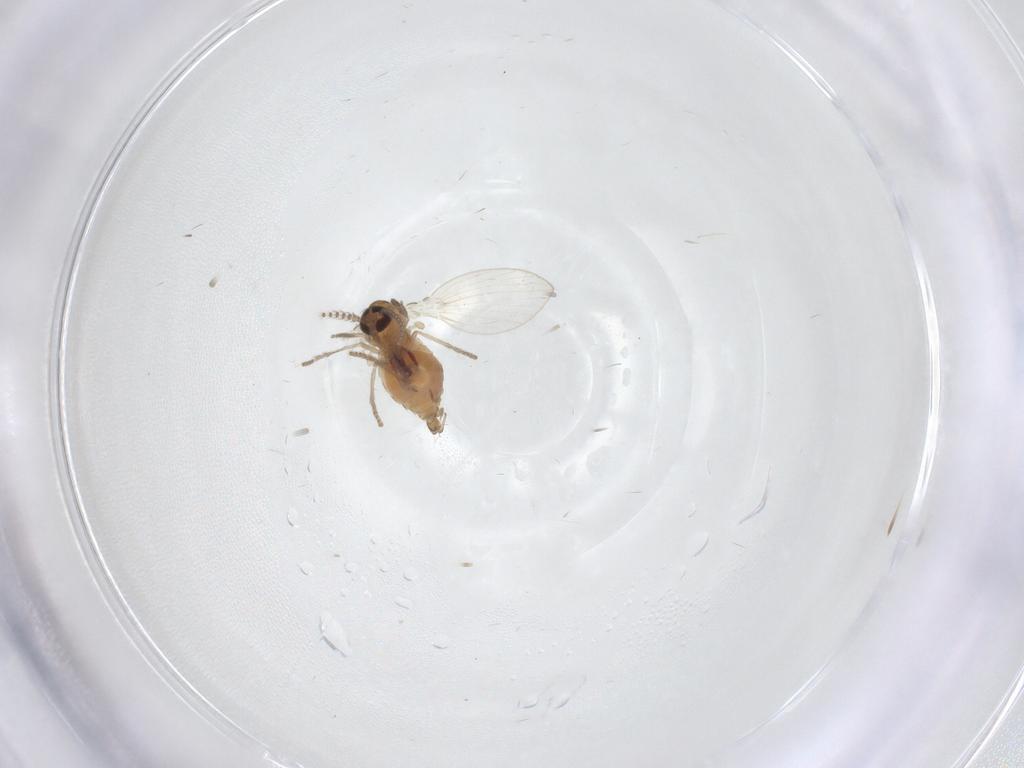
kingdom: Animalia
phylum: Arthropoda
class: Insecta
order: Diptera
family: Psychodidae
